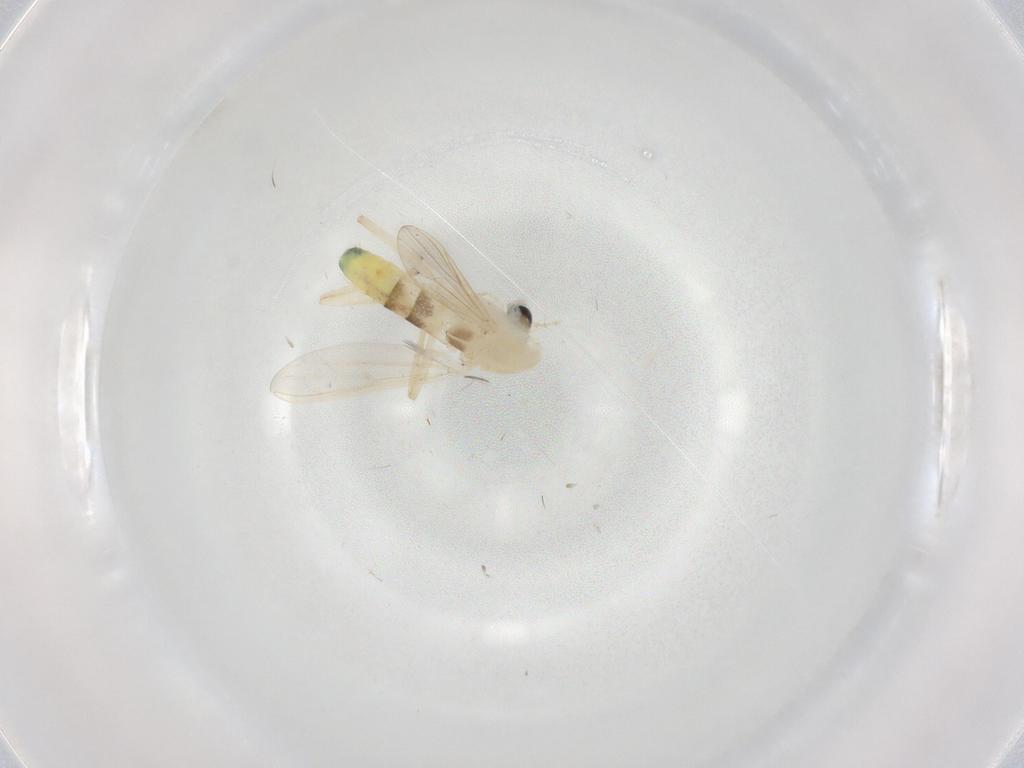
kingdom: Animalia
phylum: Arthropoda
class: Insecta
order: Diptera
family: Chironomidae
